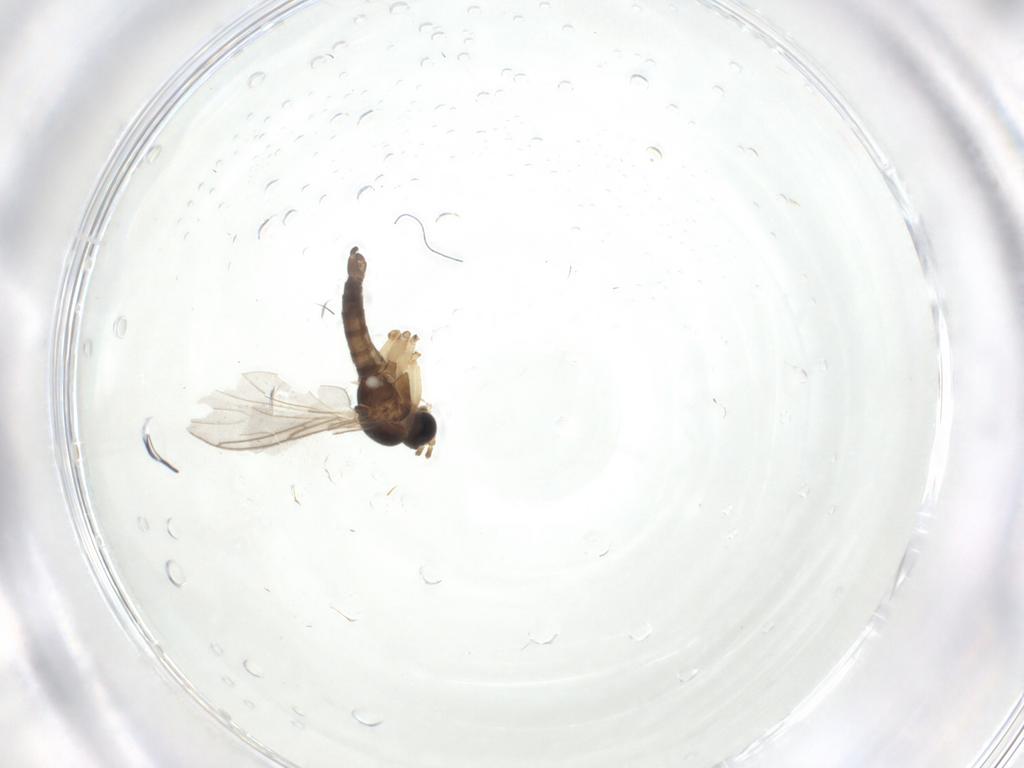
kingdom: Animalia
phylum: Arthropoda
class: Insecta
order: Diptera
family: Sciaridae
